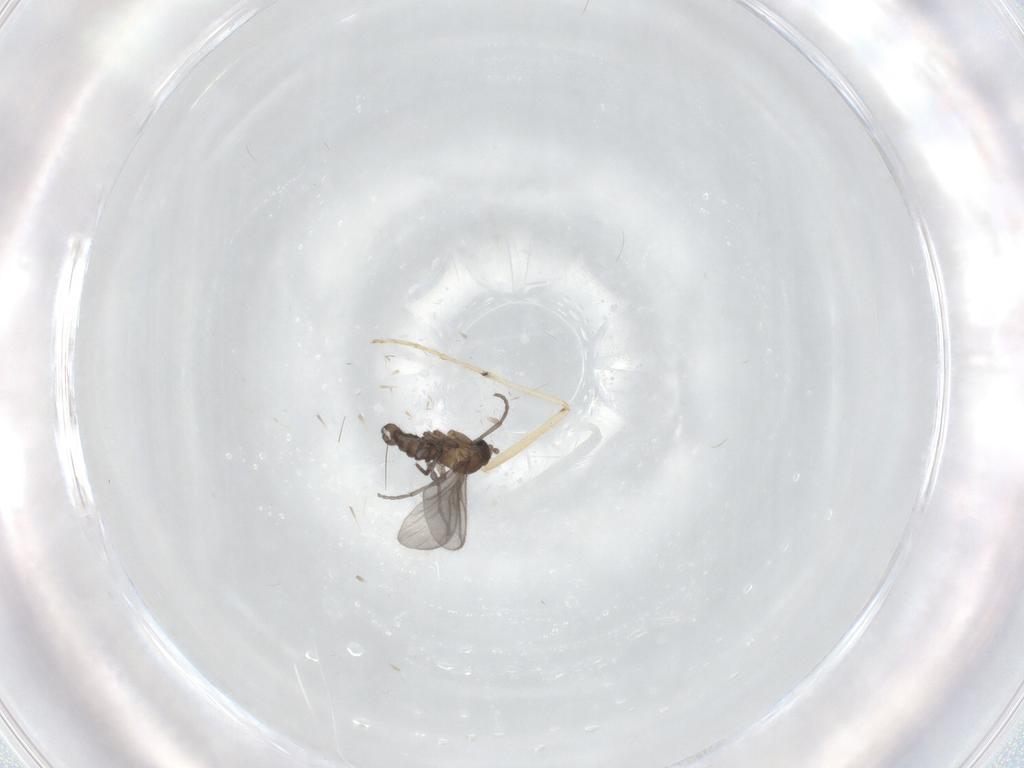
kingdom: Animalia
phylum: Arthropoda
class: Insecta
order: Diptera
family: Sciaridae
